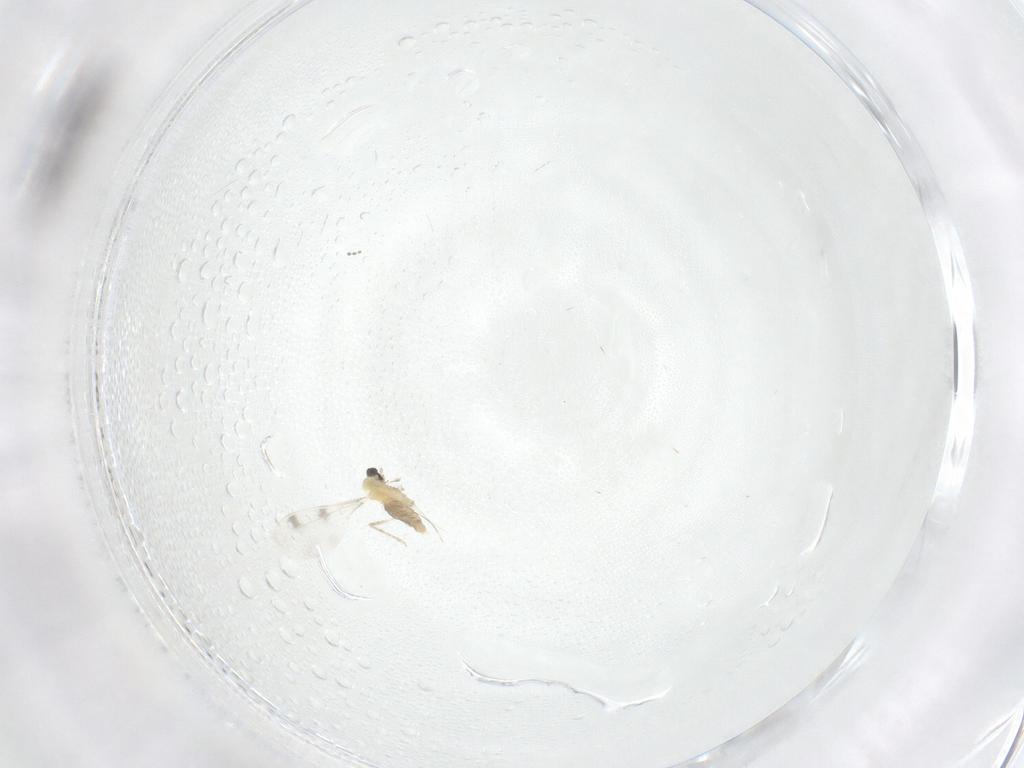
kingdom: Animalia
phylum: Arthropoda
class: Insecta
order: Diptera
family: Cecidomyiidae
